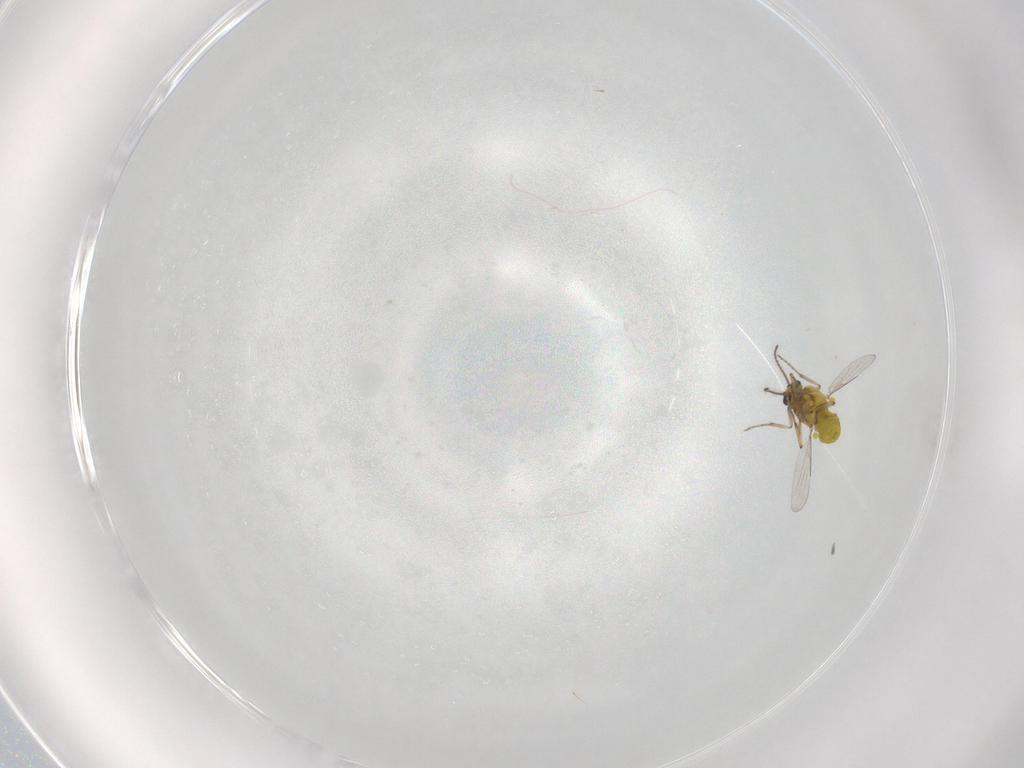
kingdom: Animalia
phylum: Arthropoda
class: Insecta
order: Diptera
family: Ceratopogonidae
